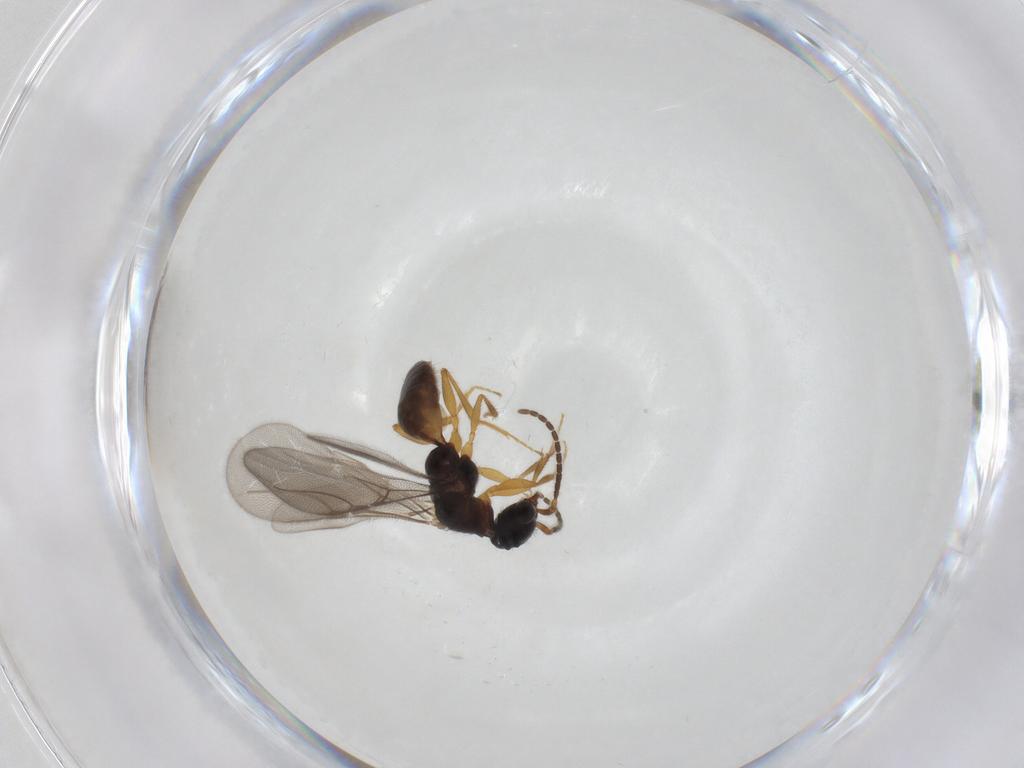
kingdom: Animalia
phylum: Arthropoda
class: Insecta
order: Hymenoptera
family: Bethylidae
